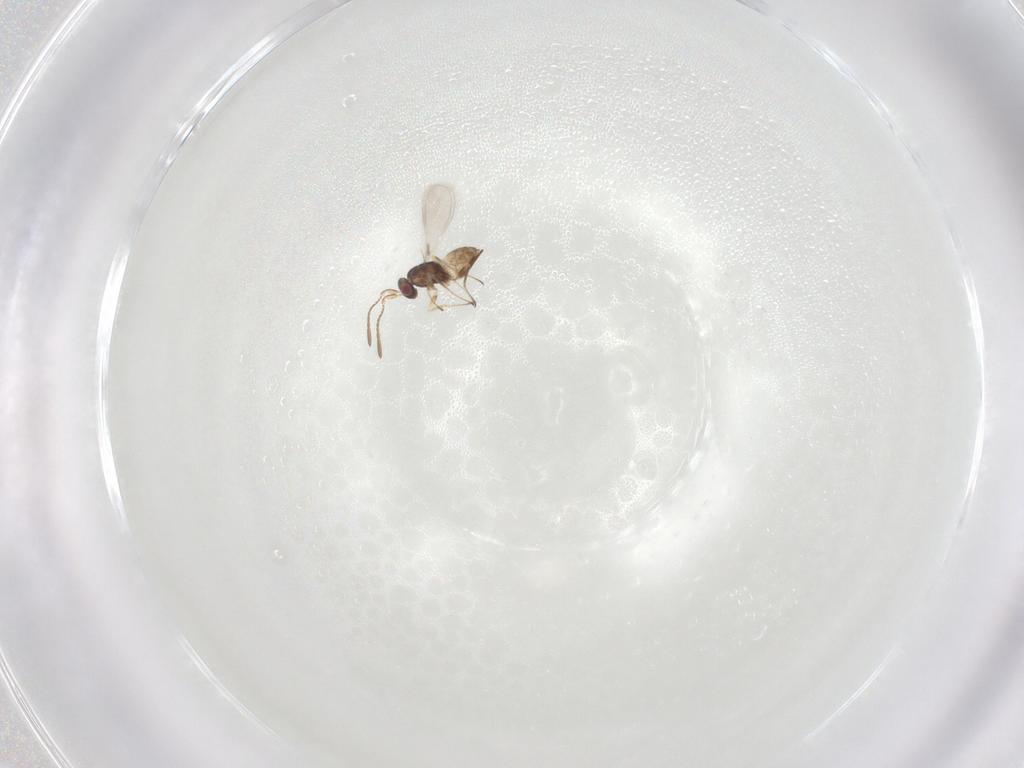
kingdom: Animalia
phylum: Arthropoda
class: Insecta
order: Hymenoptera
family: Mymaridae
